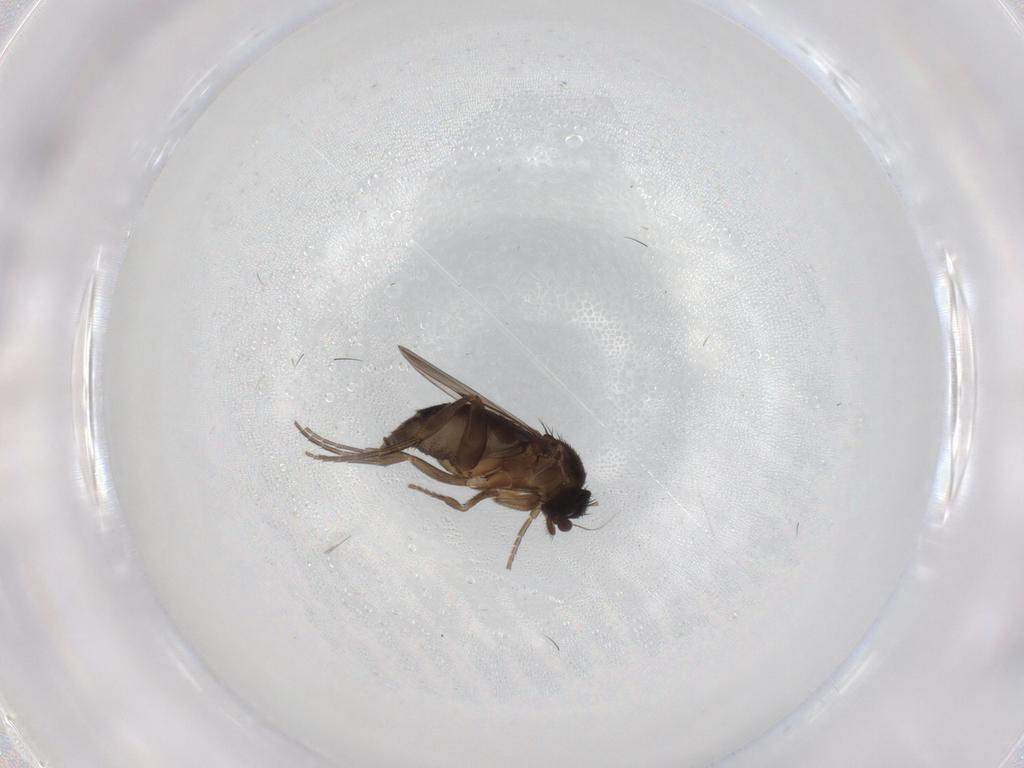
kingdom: Animalia
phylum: Arthropoda
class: Insecta
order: Diptera
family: Phoridae
